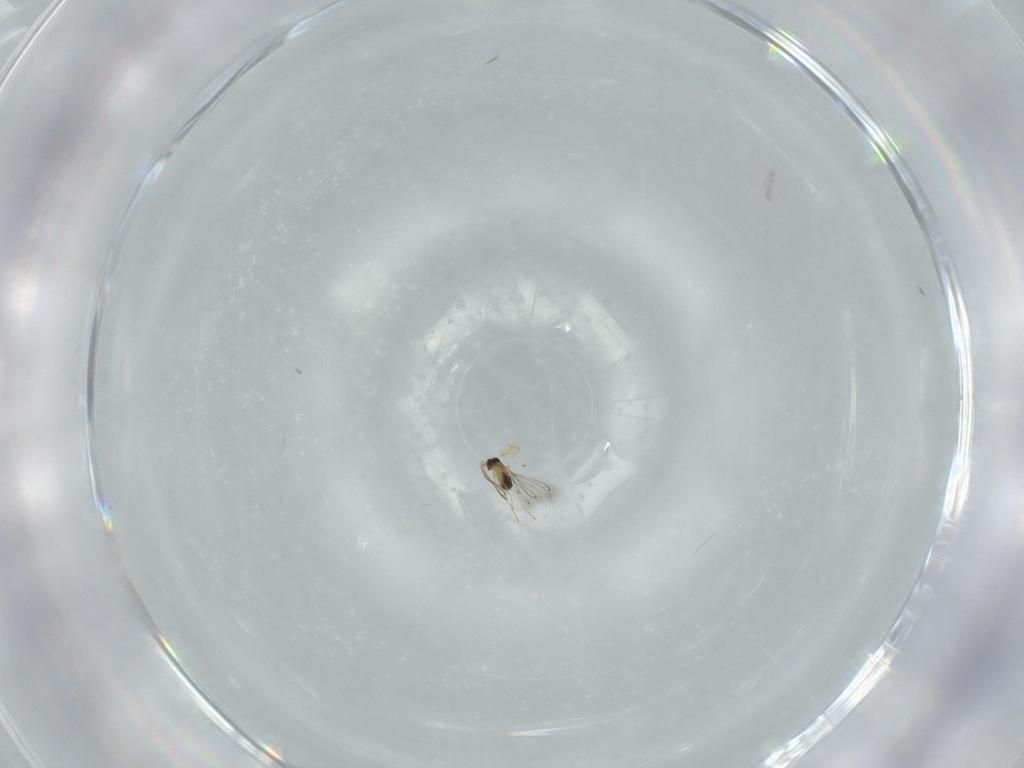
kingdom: Animalia
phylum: Arthropoda
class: Insecta
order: Hymenoptera
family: Mymaridae
